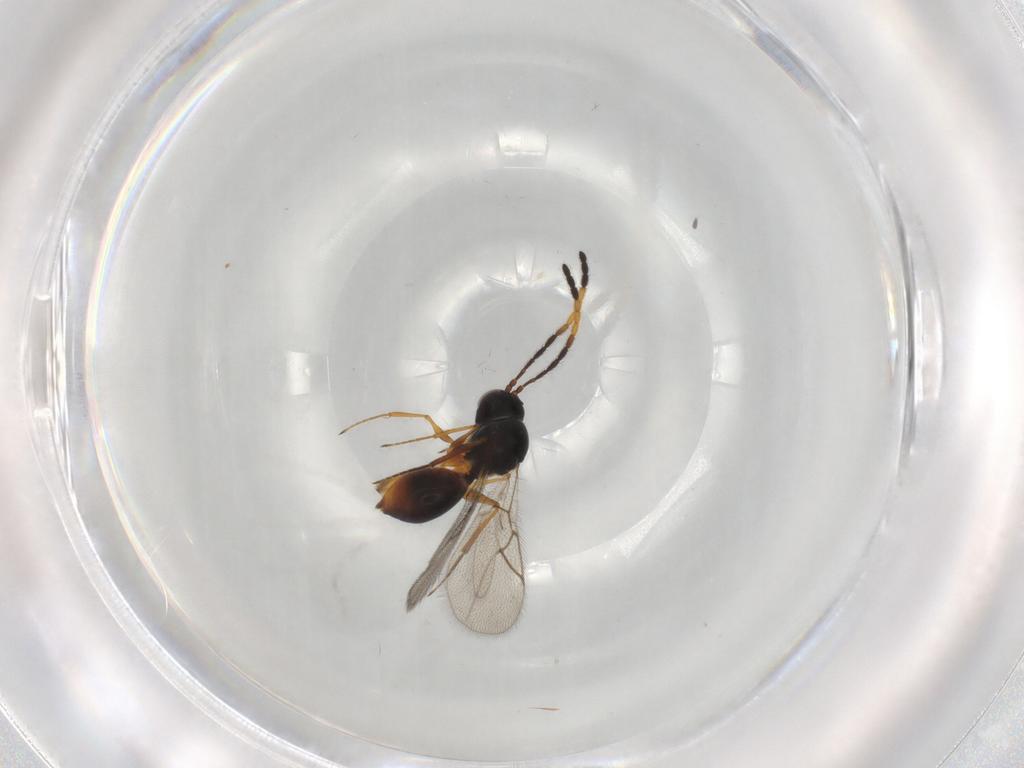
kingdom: Animalia
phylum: Arthropoda
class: Insecta
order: Hymenoptera
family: Figitidae
